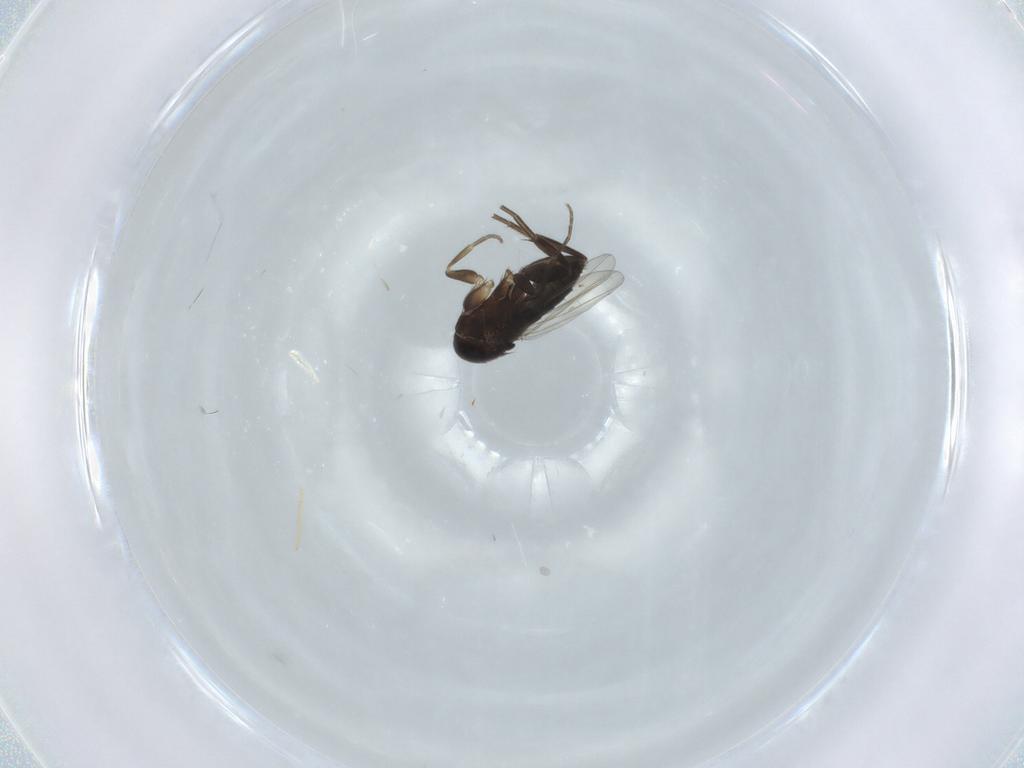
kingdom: Animalia
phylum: Arthropoda
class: Insecta
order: Diptera
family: Phoridae
